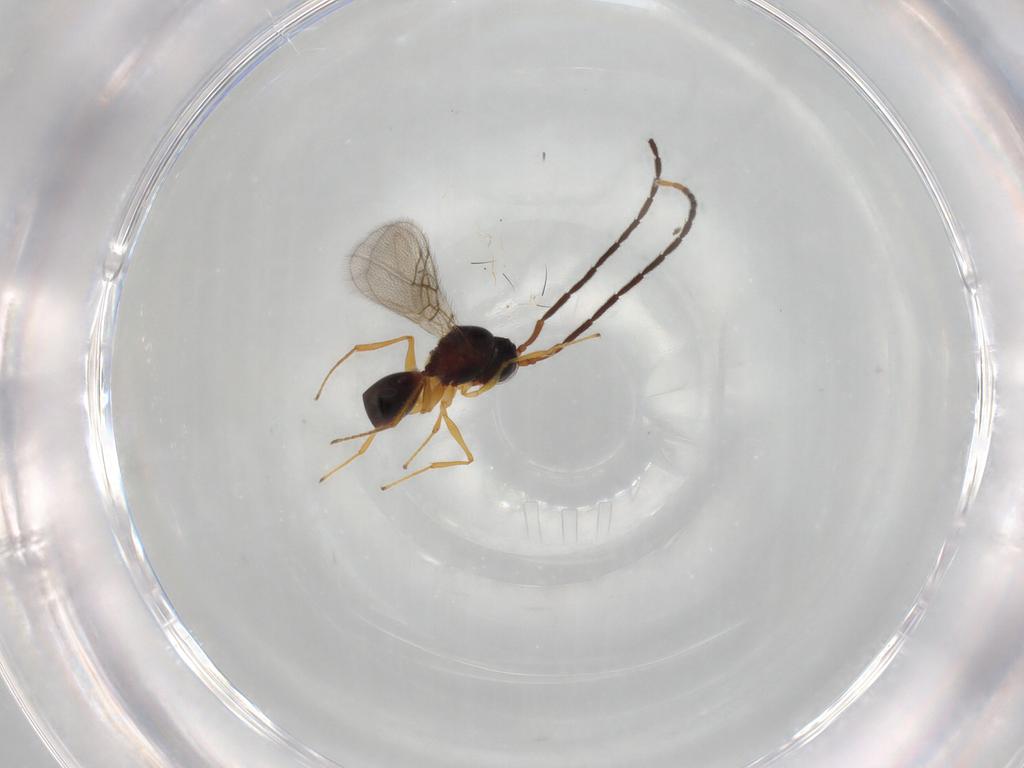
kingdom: Animalia
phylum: Arthropoda
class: Insecta
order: Hymenoptera
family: Figitidae
